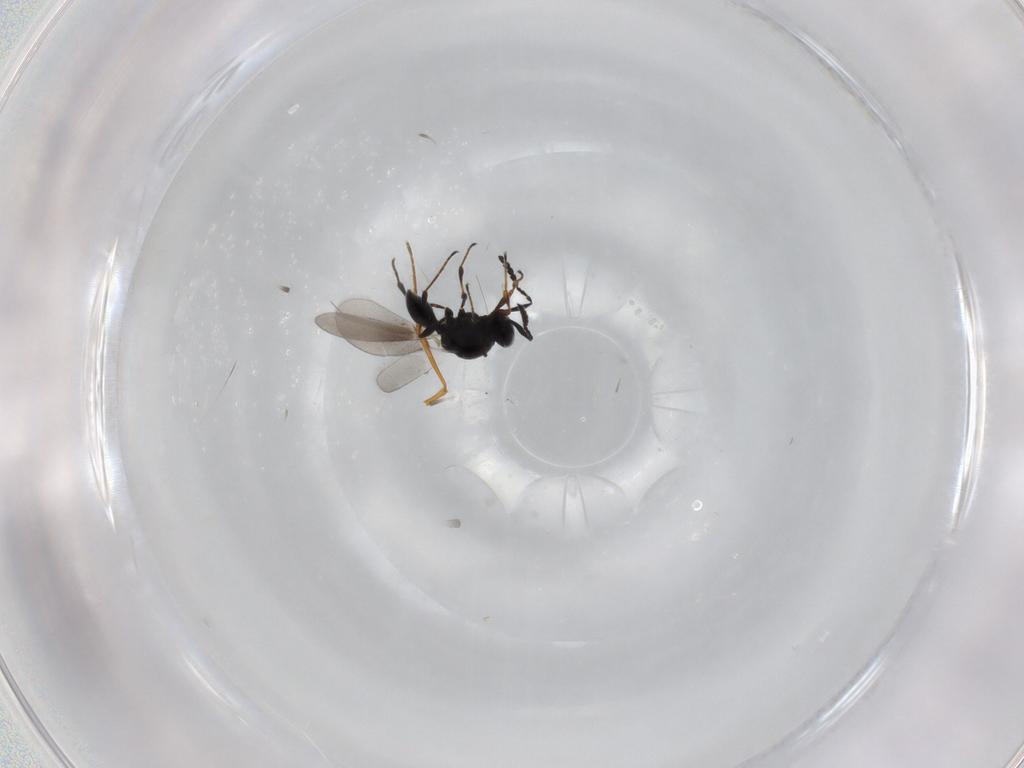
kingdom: Animalia
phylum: Arthropoda
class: Insecta
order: Hymenoptera
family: Platygastridae
